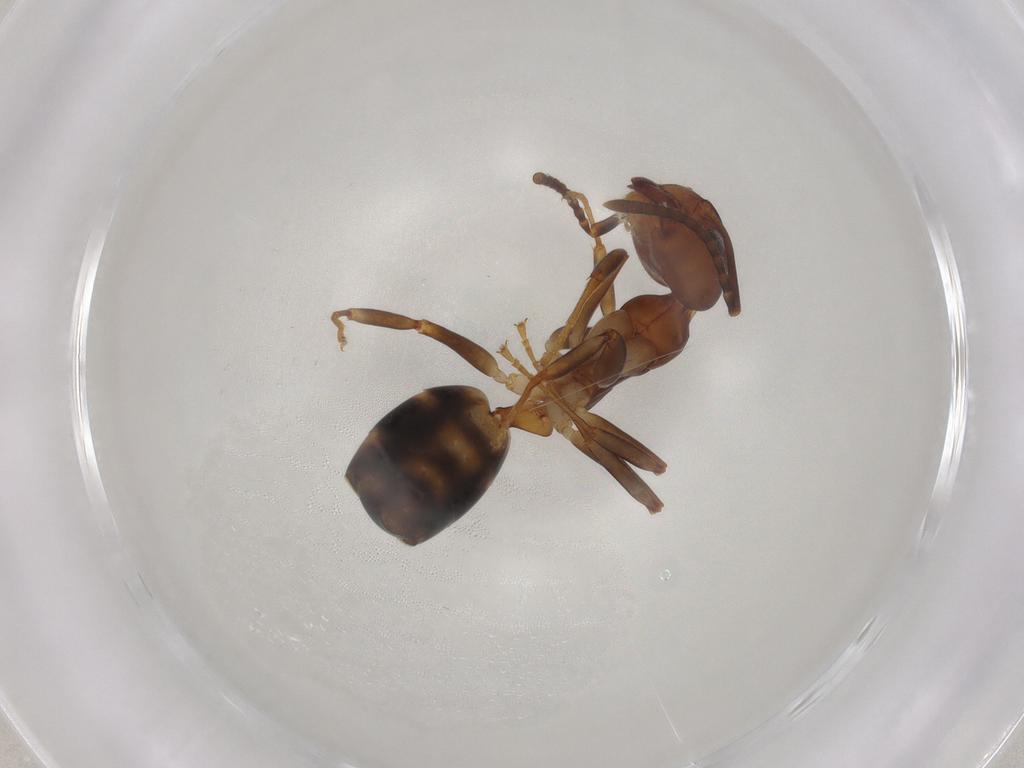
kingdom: Animalia
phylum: Arthropoda
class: Insecta
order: Hymenoptera
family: Formicidae
